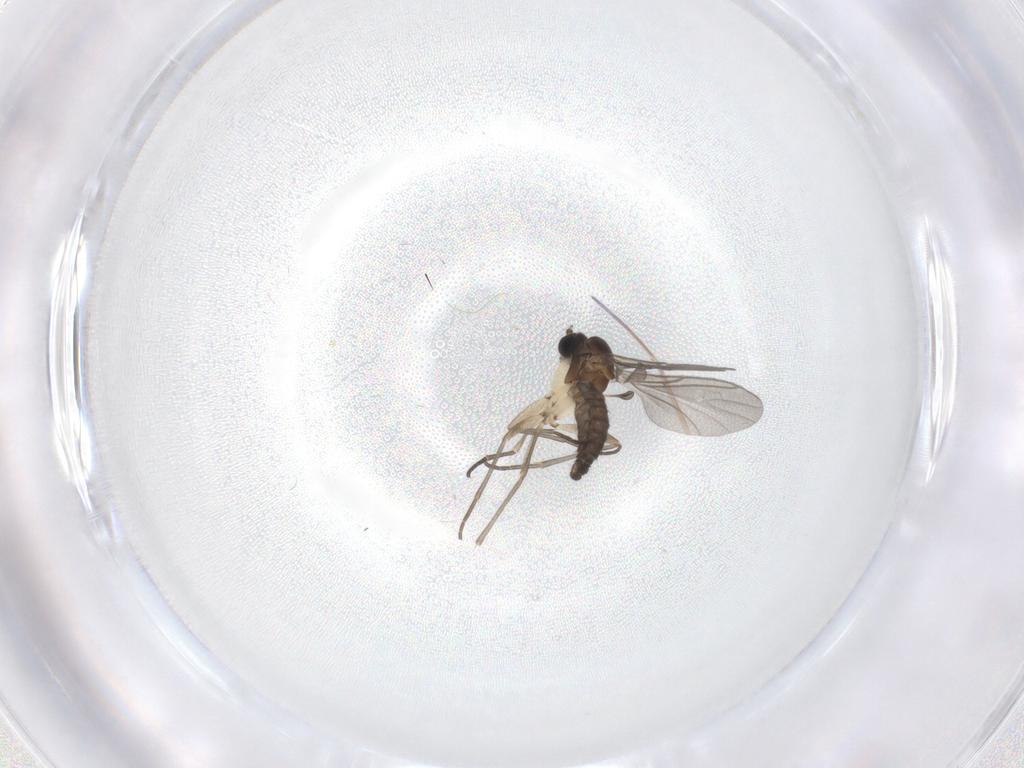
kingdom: Animalia
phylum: Arthropoda
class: Insecta
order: Diptera
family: Sciaridae
